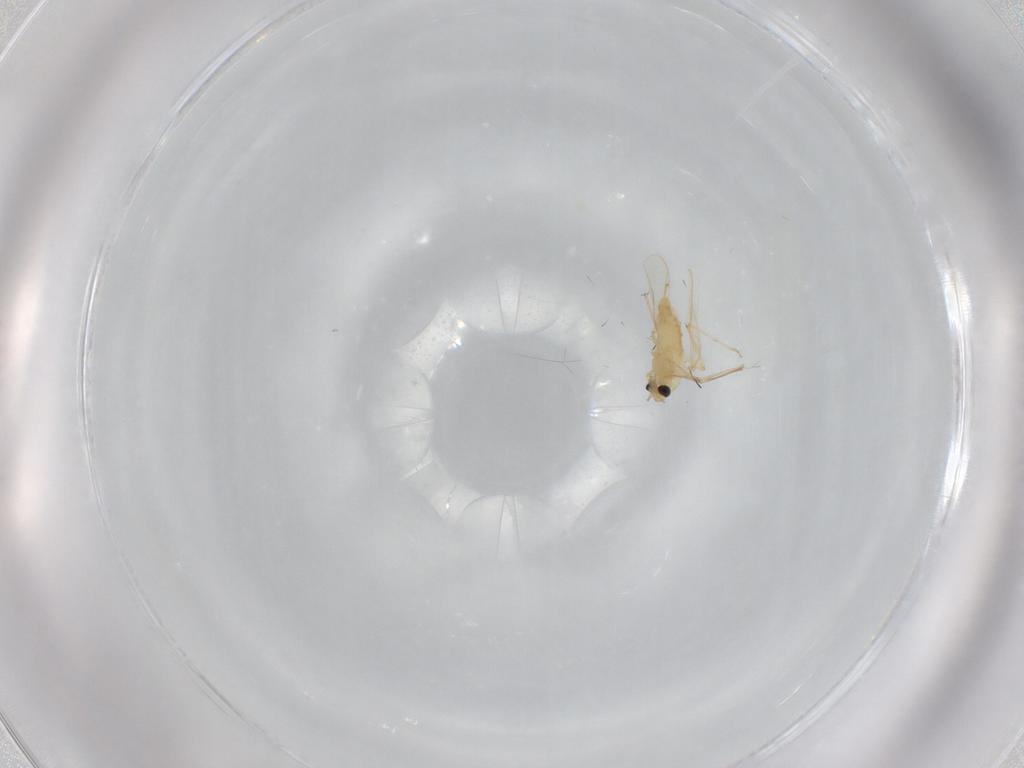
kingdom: Animalia
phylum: Arthropoda
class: Insecta
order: Diptera
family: Chironomidae
